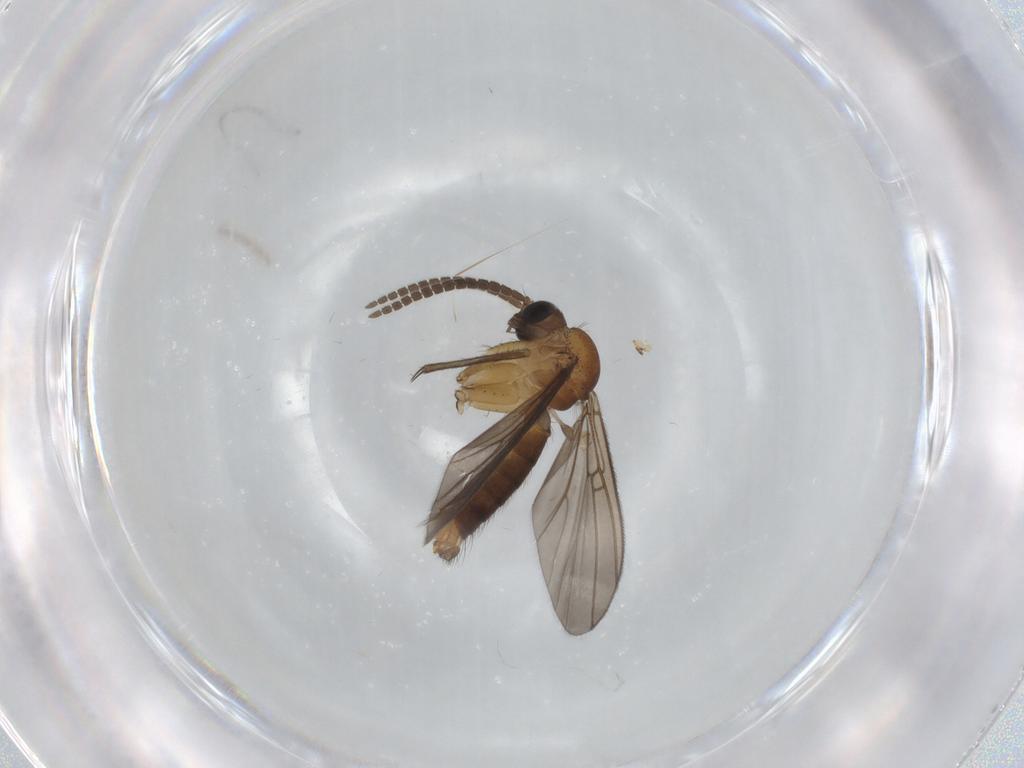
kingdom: Animalia
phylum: Arthropoda
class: Insecta
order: Diptera
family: Mycetophilidae
